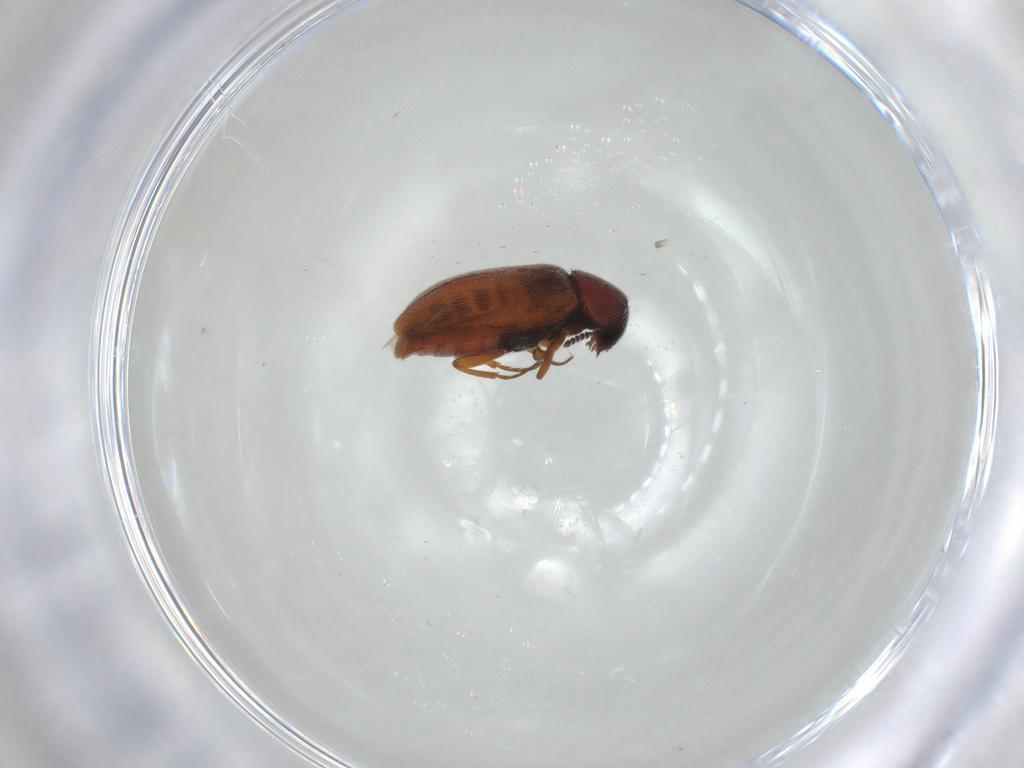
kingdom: Animalia
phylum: Arthropoda
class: Insecta
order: Coleoptera
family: Rhadalidae
